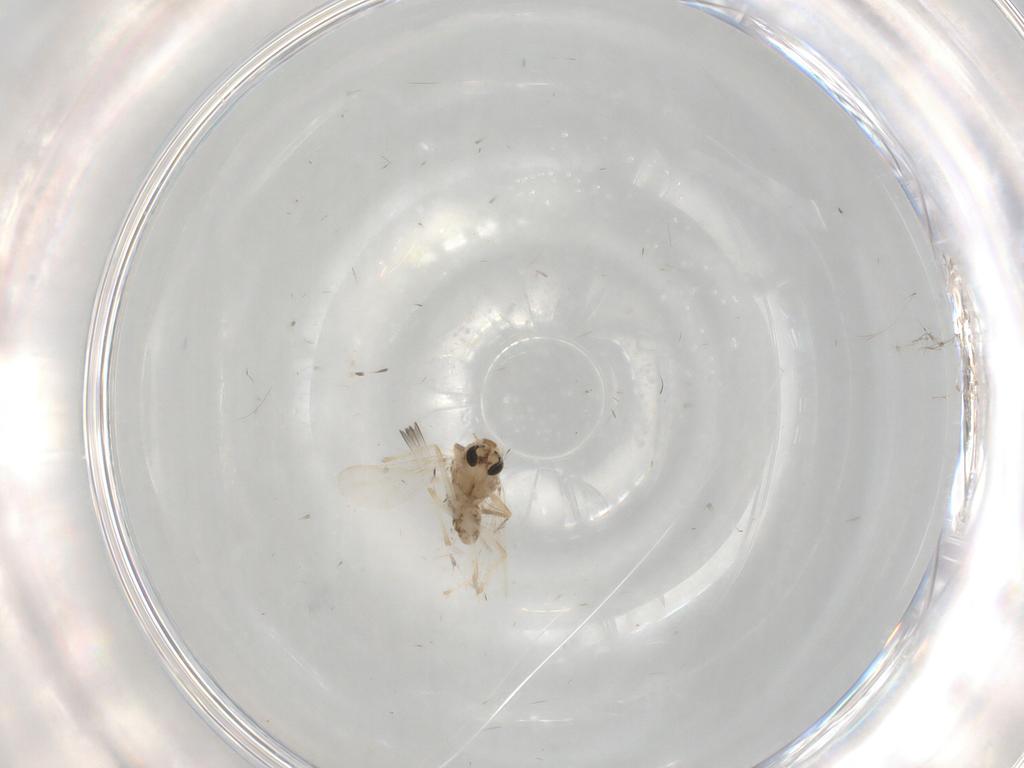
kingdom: Animalia
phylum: Arthropoda
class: Insecta
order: Diptera
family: Chironomidae
